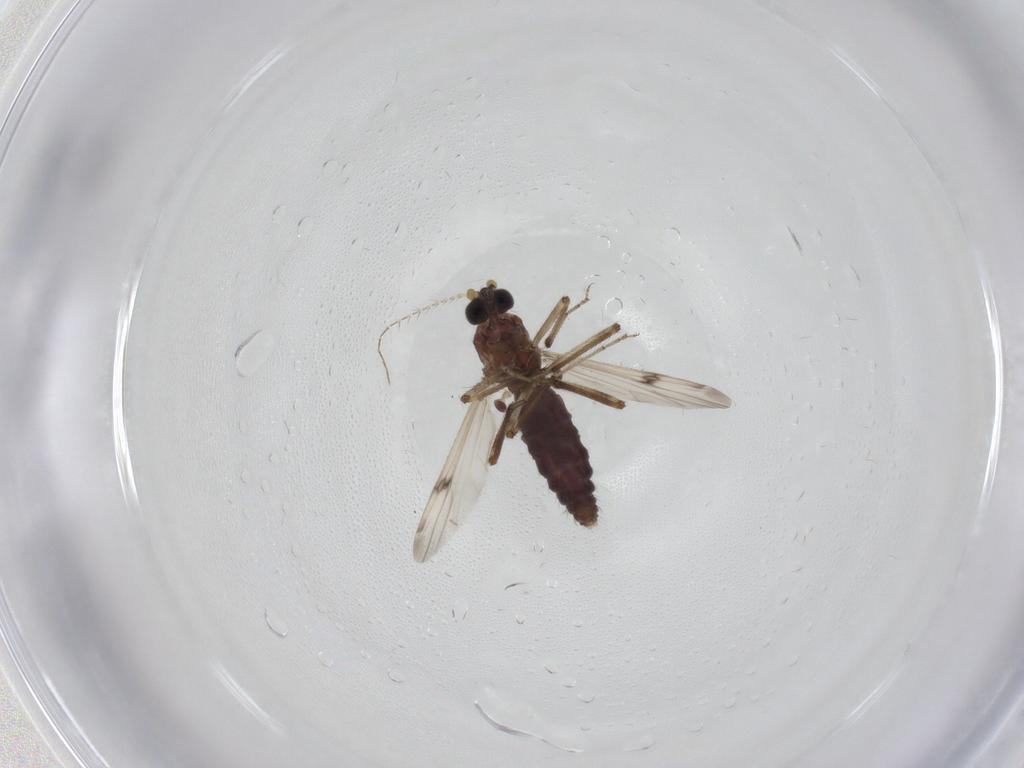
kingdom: Animalia
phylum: Arthropoda
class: Insecta
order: Diptera
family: Ceratopogonidae
